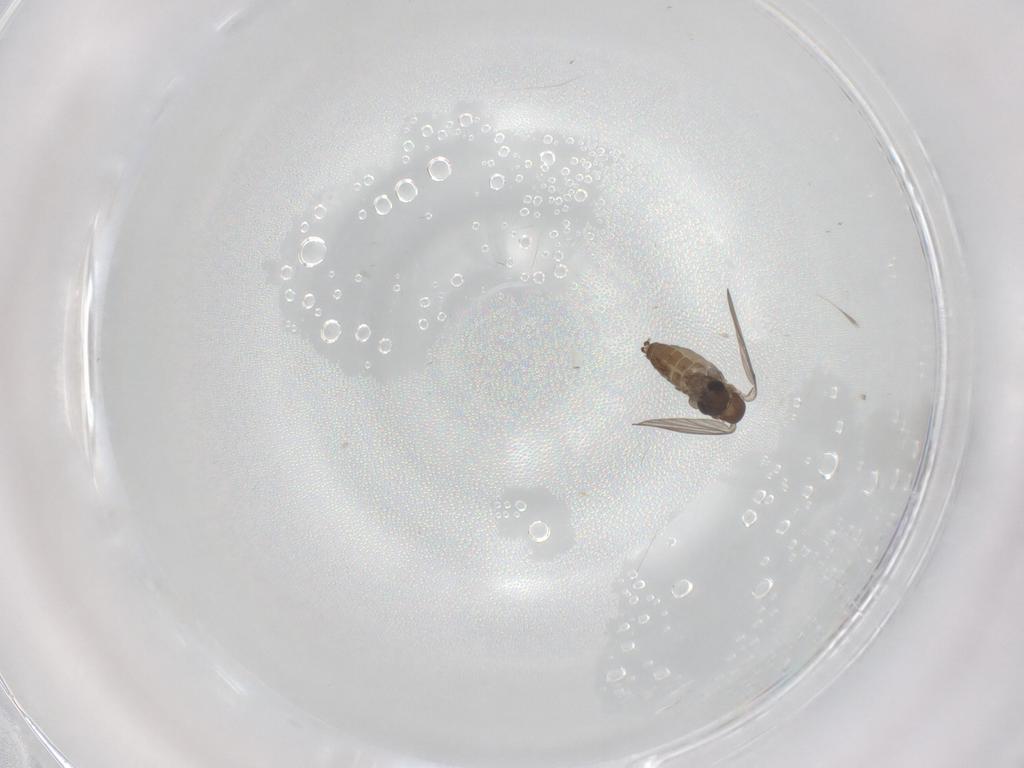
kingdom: Animalia
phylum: Arthropoda
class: Insecta
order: Diptera
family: Ceratopogonidae
